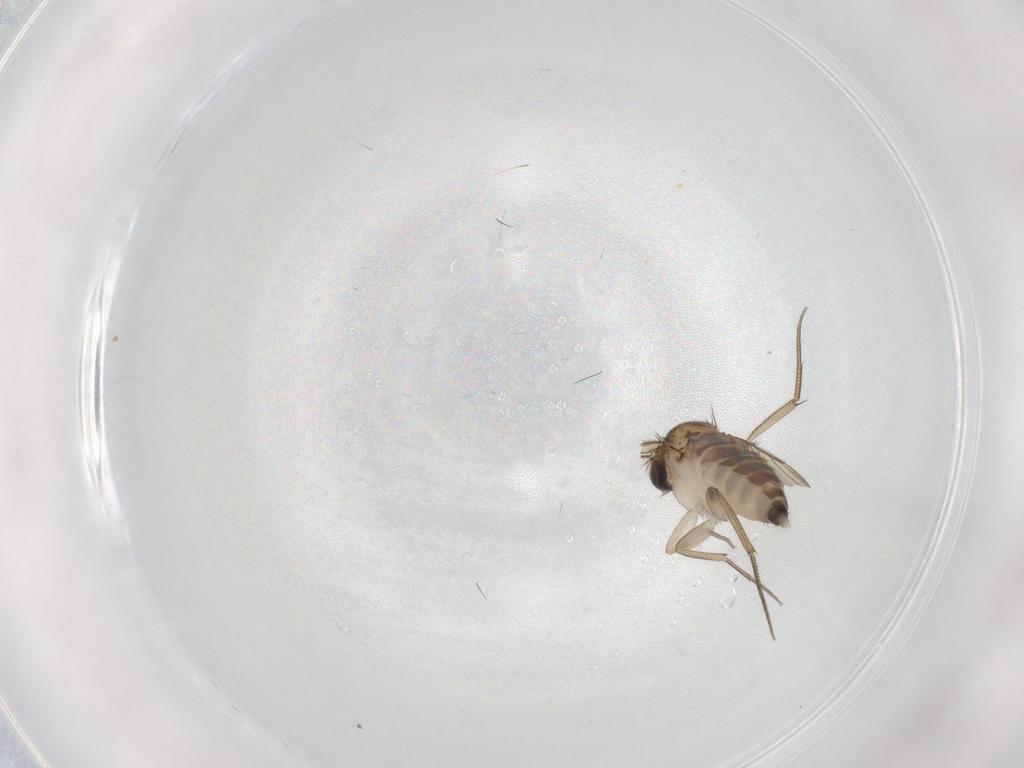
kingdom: Animalia
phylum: Arthropoda
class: Insecta
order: Diptera
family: Phoridae
